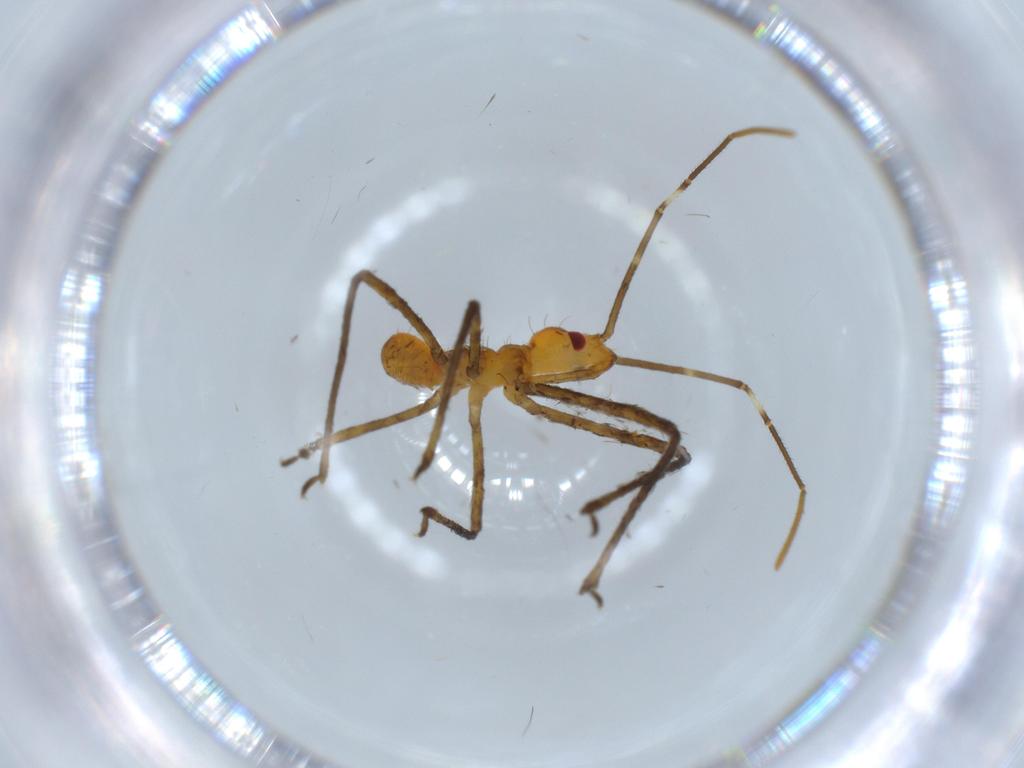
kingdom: Animalia
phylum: Arthropoda
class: Insecta
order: Hemiptera
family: Reduviidae
